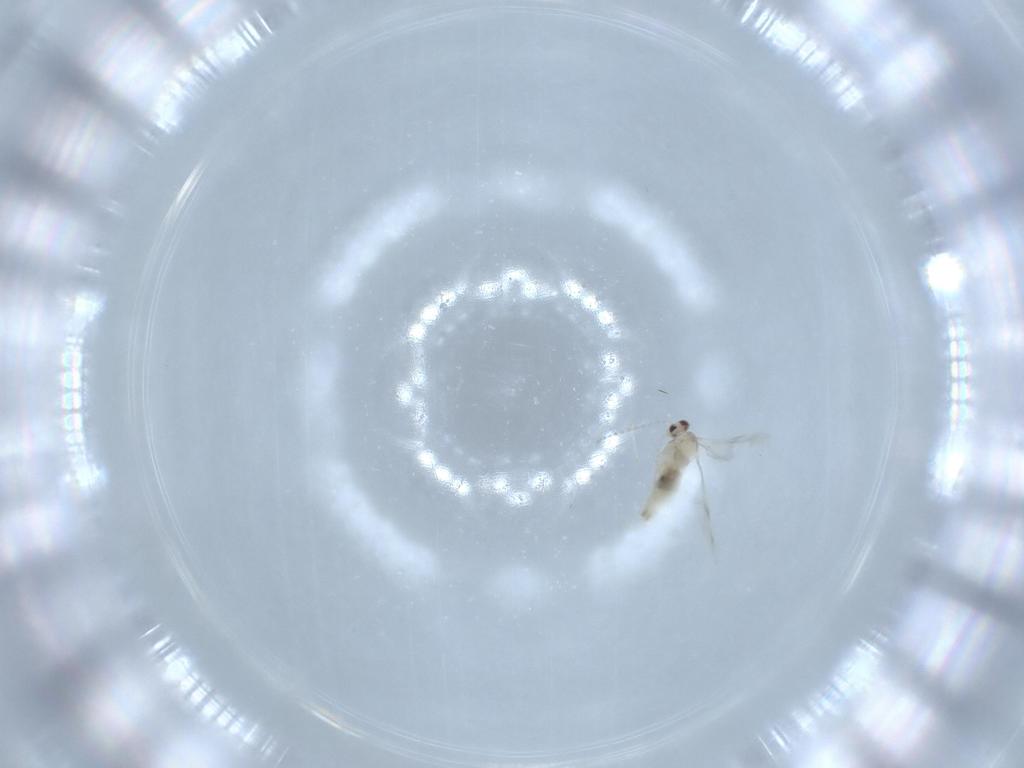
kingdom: Animalia
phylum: Arthropoda
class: Insecta
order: Diptera
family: Cecidomyiidae
